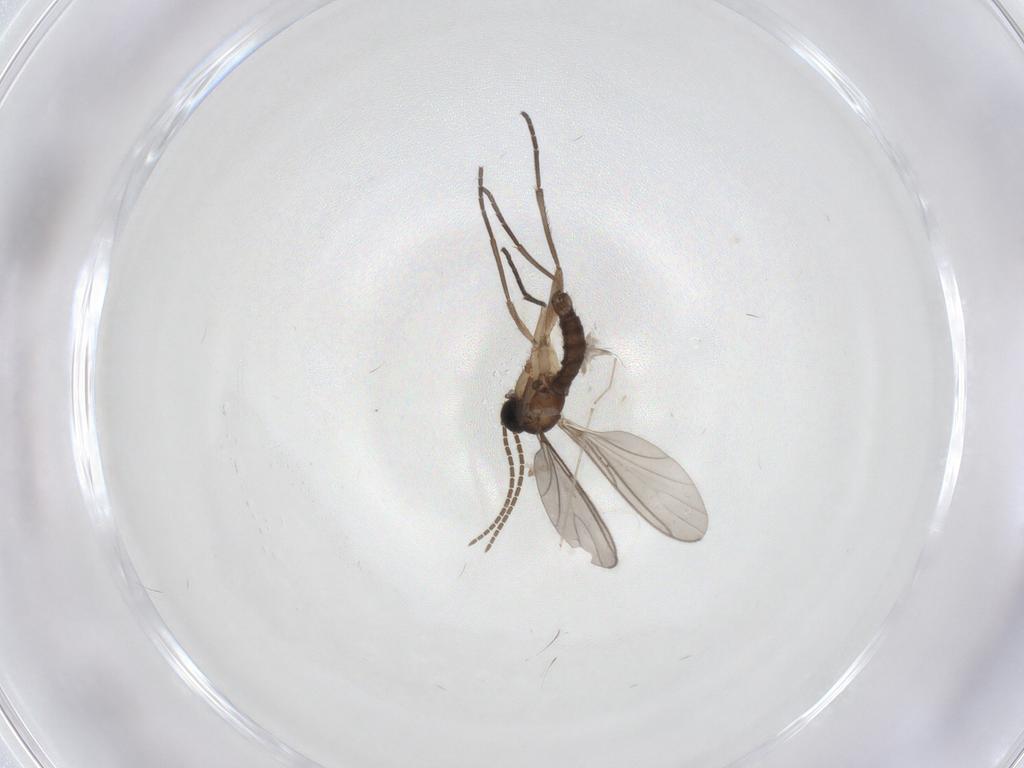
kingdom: Animalia
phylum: Arthropoda
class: Insecta
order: Diptera
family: Sciaridae
